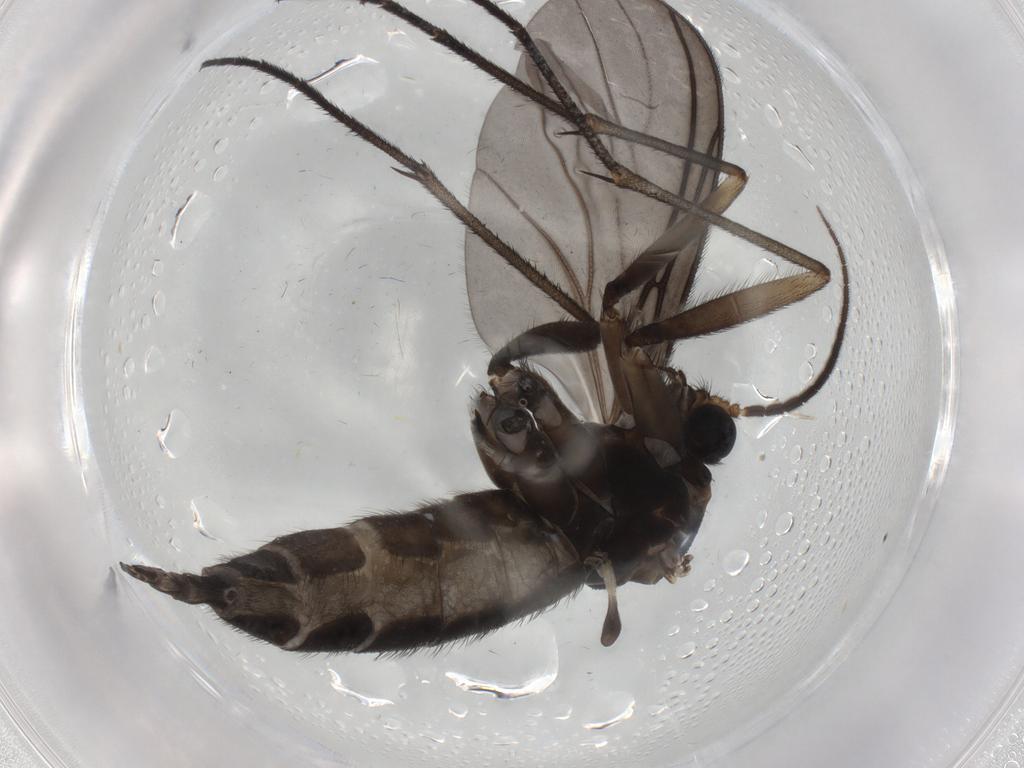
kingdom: Animalia
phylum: Arthropoda
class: Insecta
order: Diptera
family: Sciaridae
